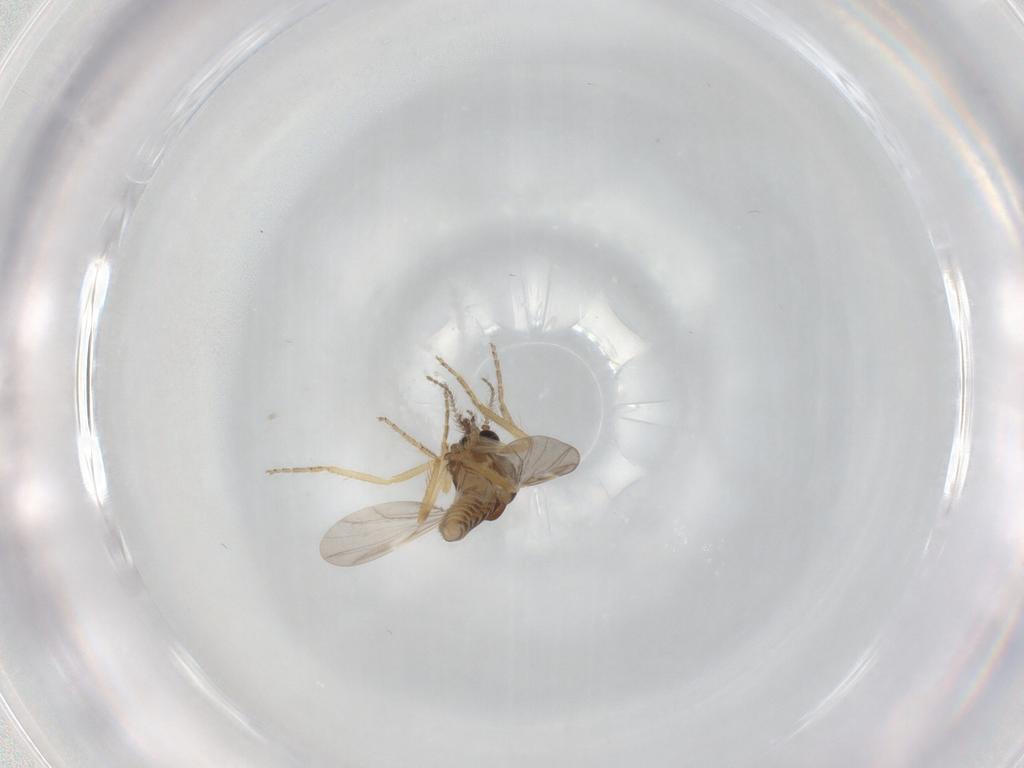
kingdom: Animalia
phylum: Arthropoda
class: Insecta
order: Diptera
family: Ceratopogonidae
